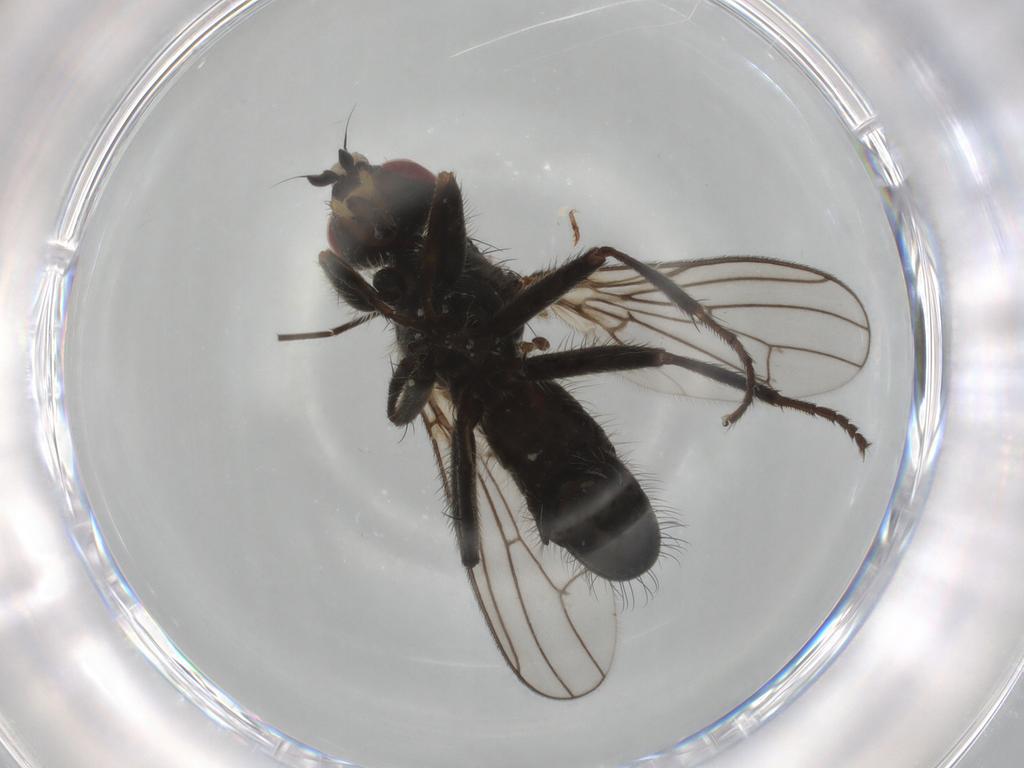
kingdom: Animalia
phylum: Arthropoda
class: Insecta
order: Diptera
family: Scathophagidae
